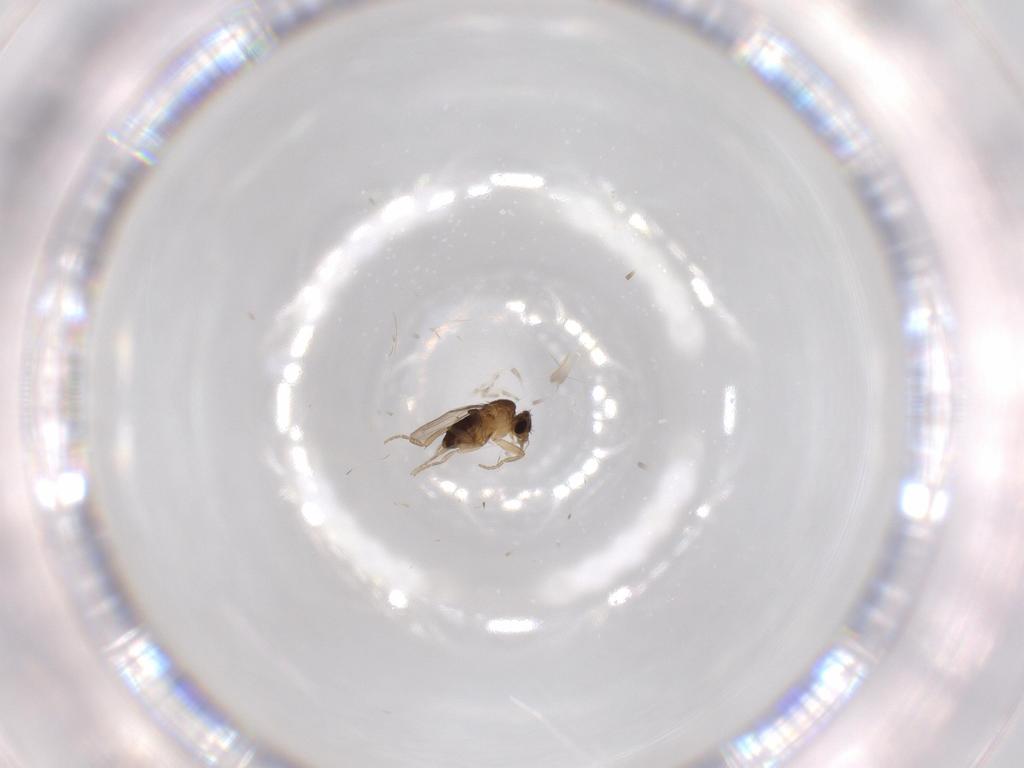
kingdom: Animalia
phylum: Arthropoda
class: Insecta
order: Diptera
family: Phoridae
